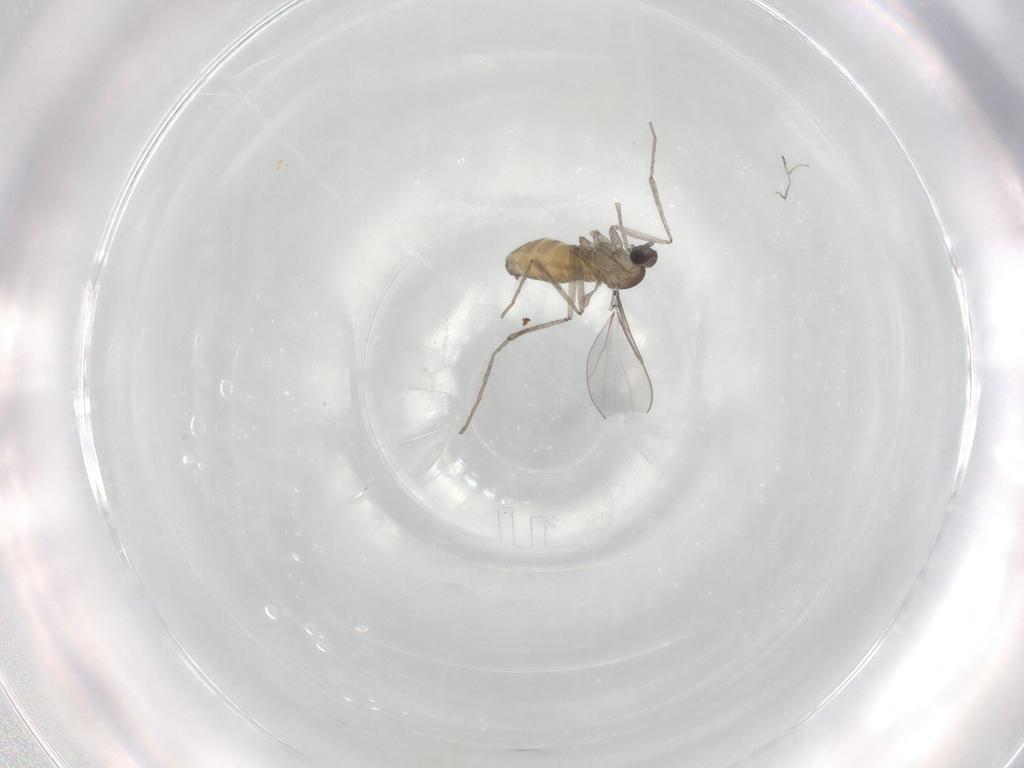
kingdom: Animalia
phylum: Arthropoda
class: Insecta
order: Diptera
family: Cecidomyiidae
